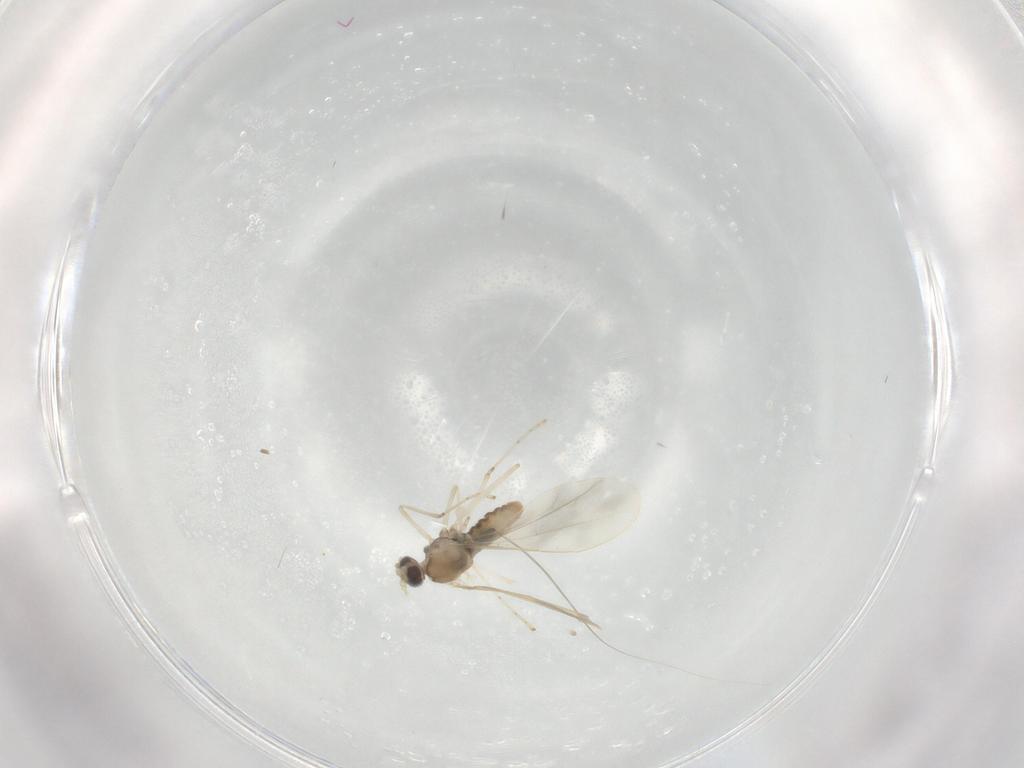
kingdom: Animalia
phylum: Arthropoda
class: Insecta
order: Diptera
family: Cecidomyiidae
